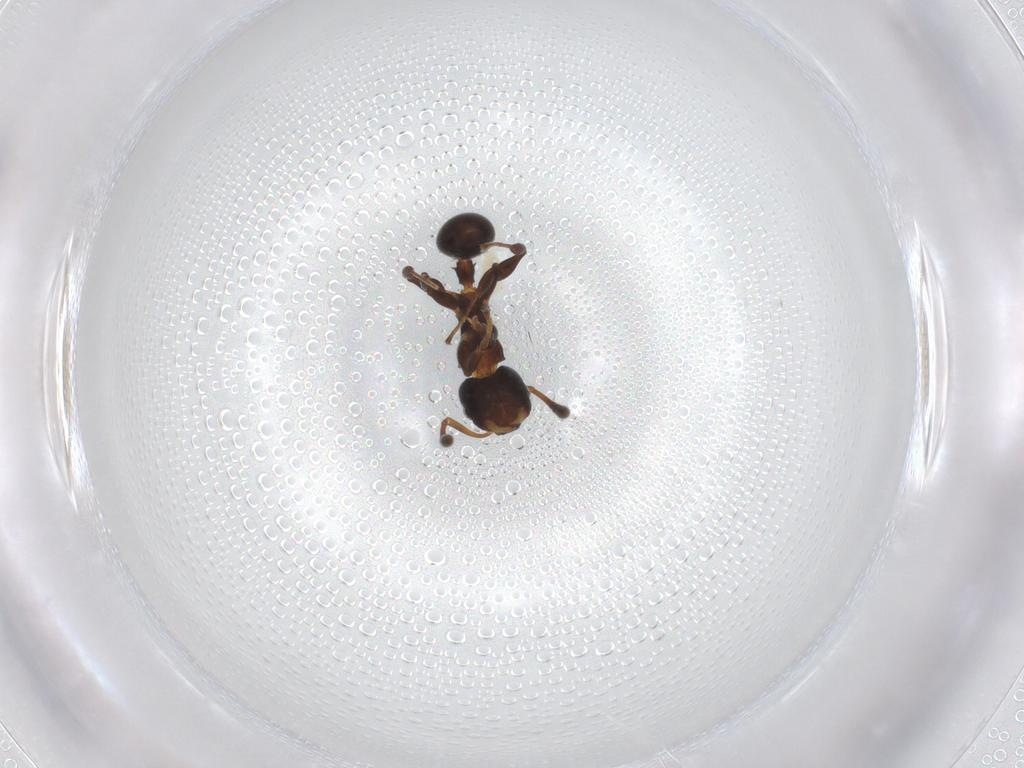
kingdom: Animalia
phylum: Arthropoda
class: Insecta
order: Hymenoptera
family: Formicidae
